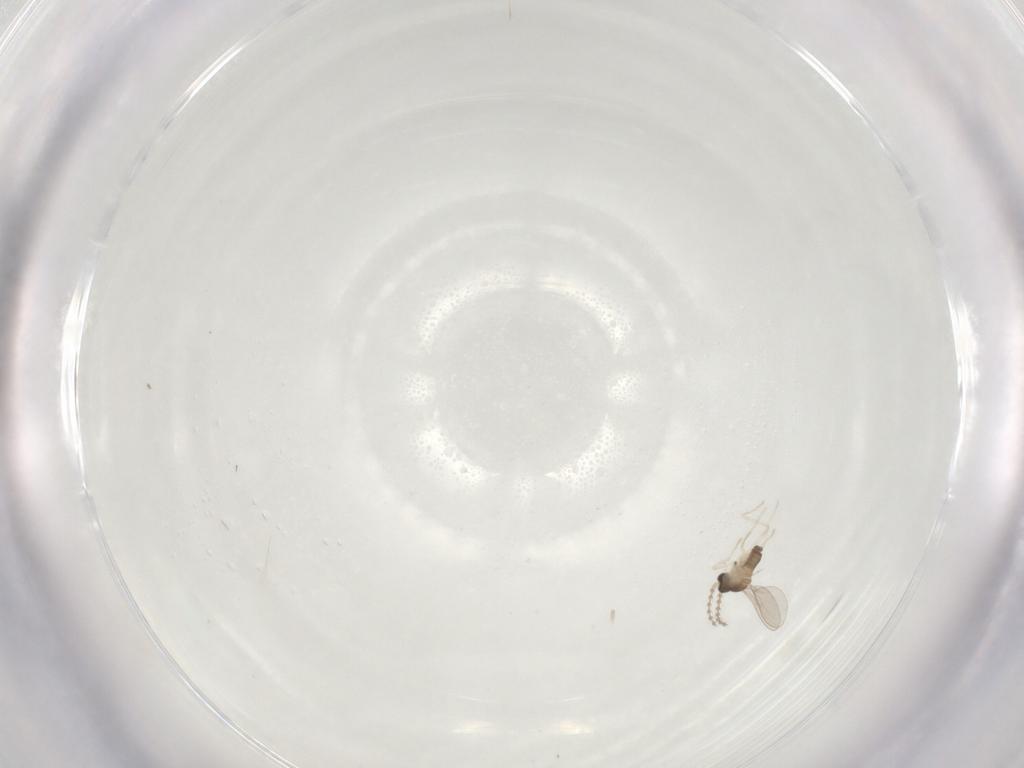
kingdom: Animalia
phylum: Arthropoda
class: Insecta
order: Diptera
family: Cecidomyiidae
